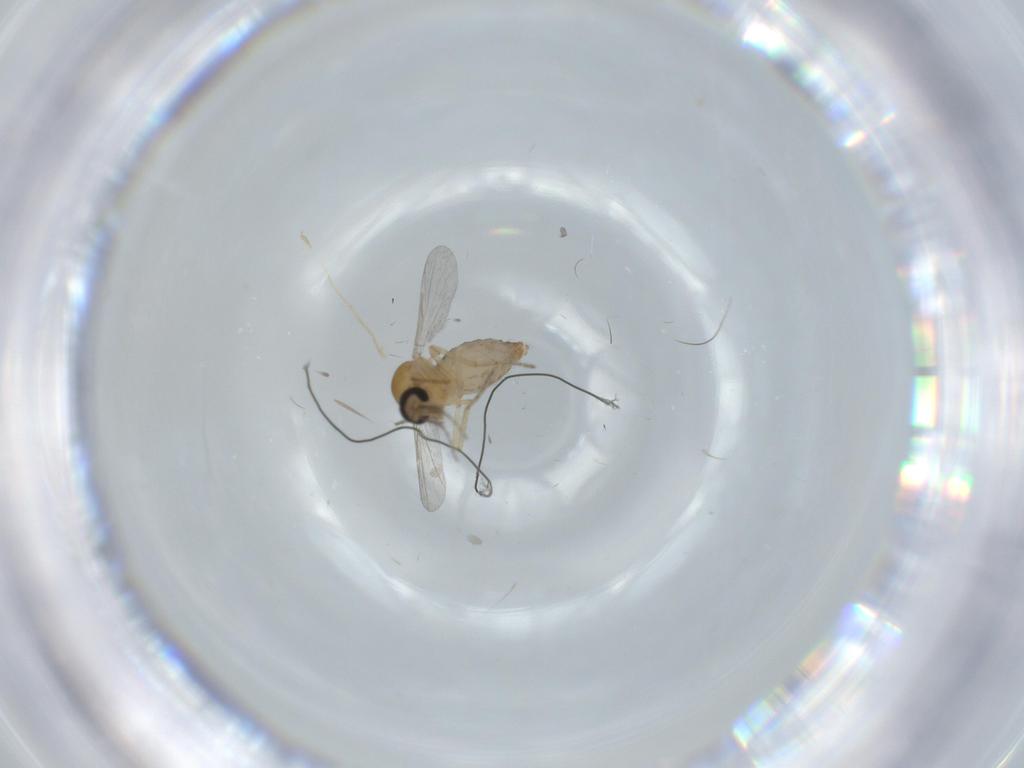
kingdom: Animalia
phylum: Arthropoda
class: Insecta
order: Diptera
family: Ceratopogonidae
